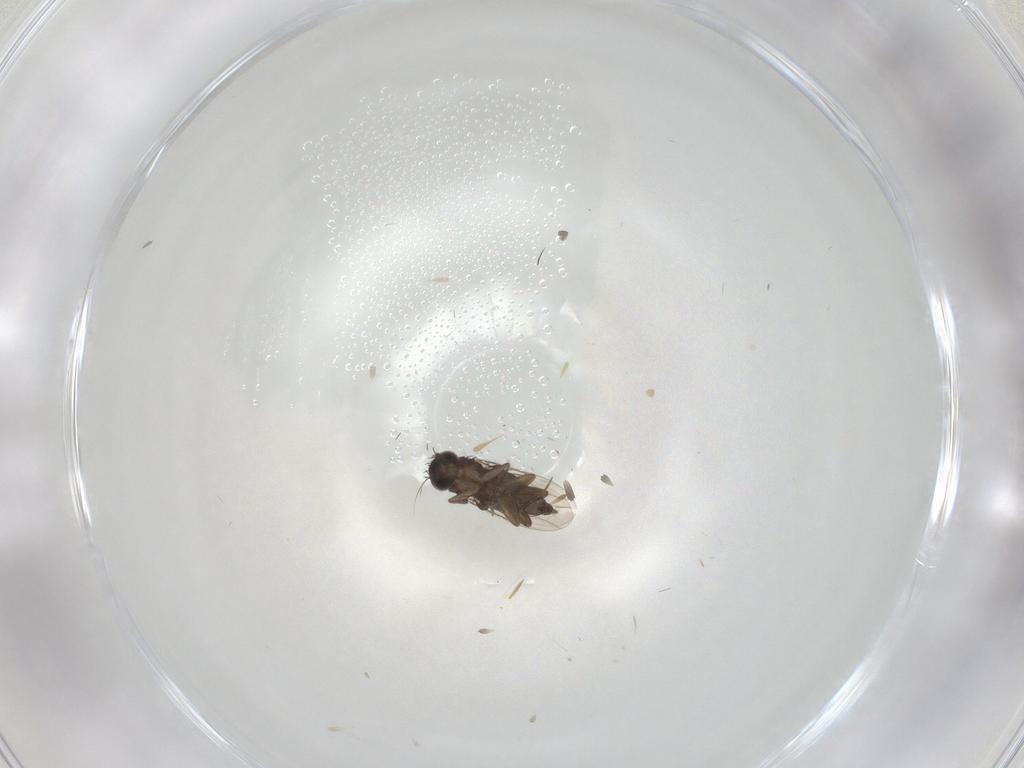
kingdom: Animalia
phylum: Arthropoda
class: Insecta
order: Diptera
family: Phoridae
